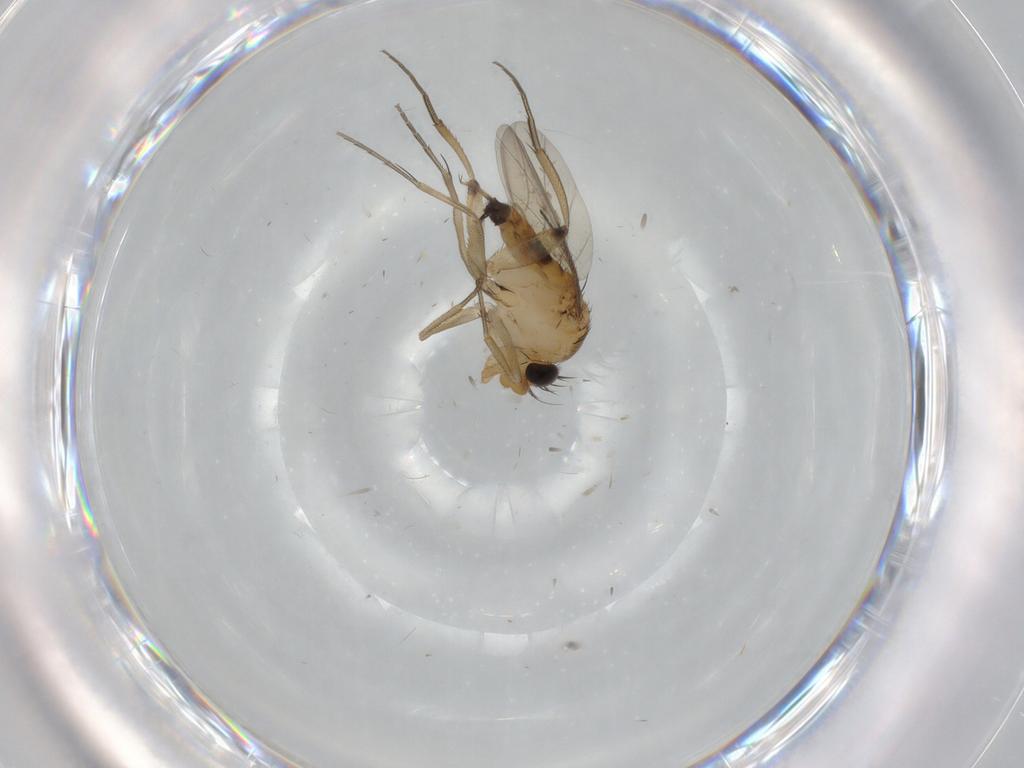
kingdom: Animalia
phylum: Arthropoda
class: Insecta
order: Diptera
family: Phoridae
